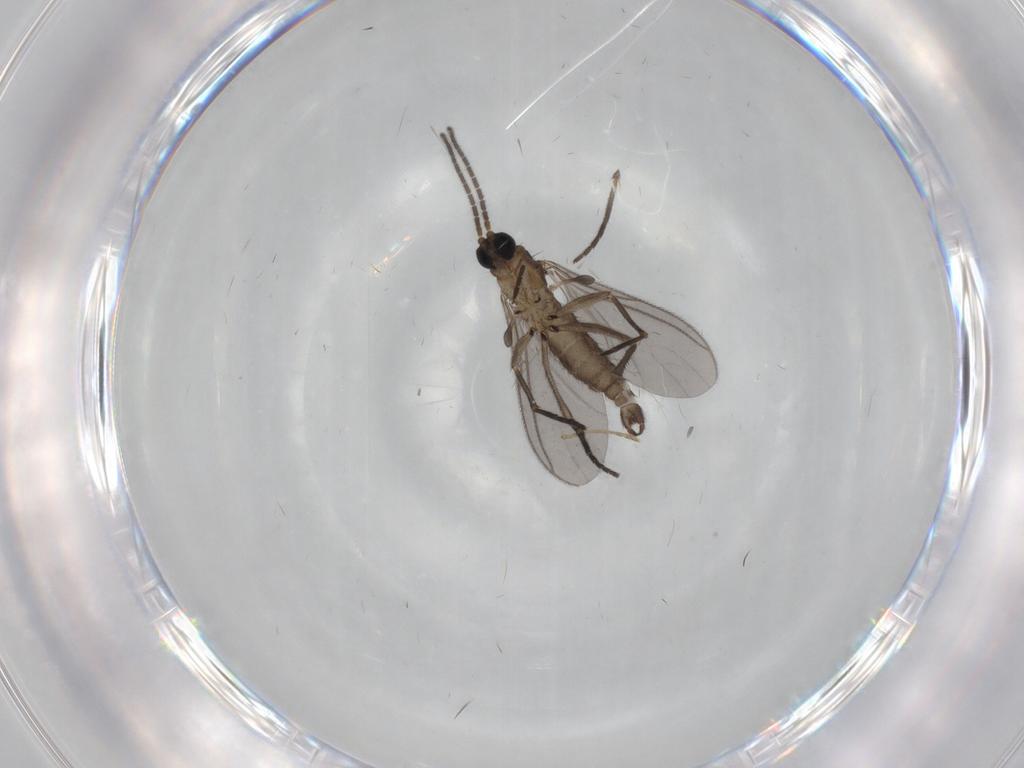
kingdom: Animalia
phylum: Arthropoda
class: Insecta
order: Diptera
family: Sciaridae
